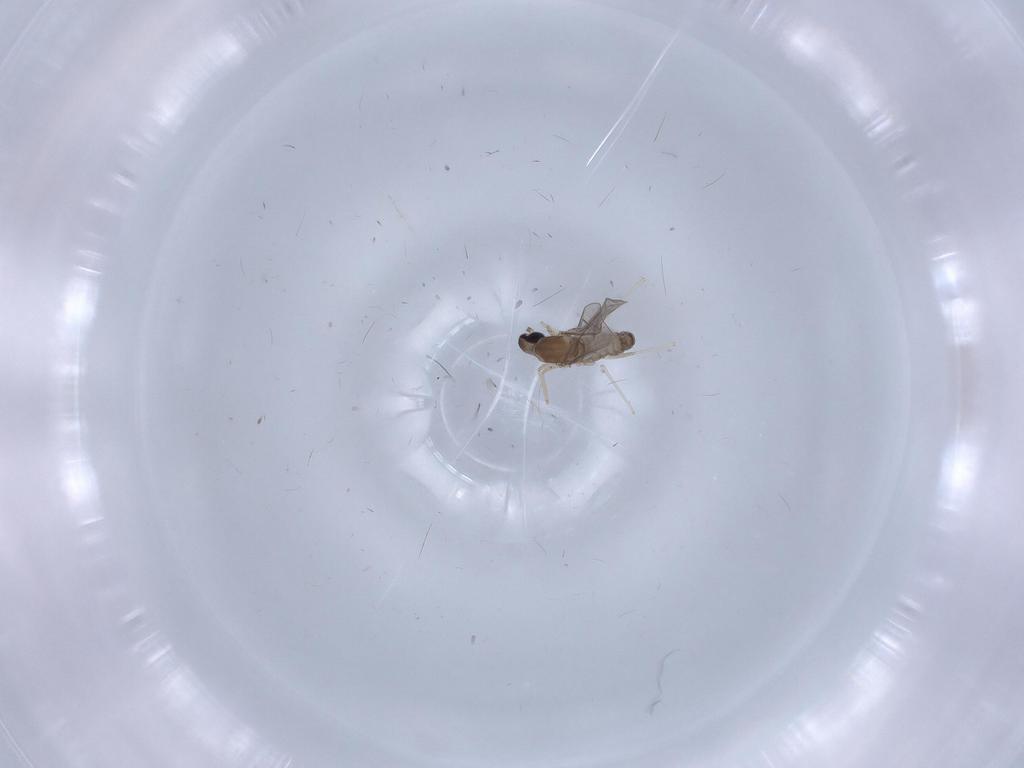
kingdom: Animalia
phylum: Arthropoda
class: Insecta
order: Diptera
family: Cecidomyiidae
